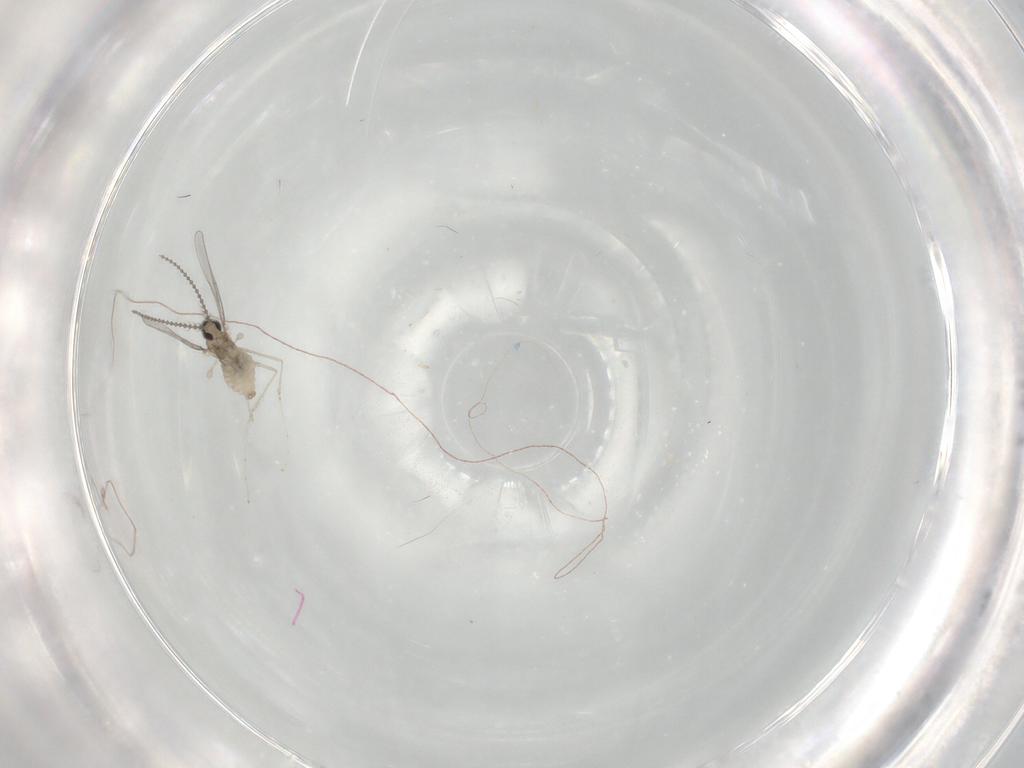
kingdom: Animalia
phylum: Arthropoda
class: Insecta
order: Diptera
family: Cecidomyiidae
